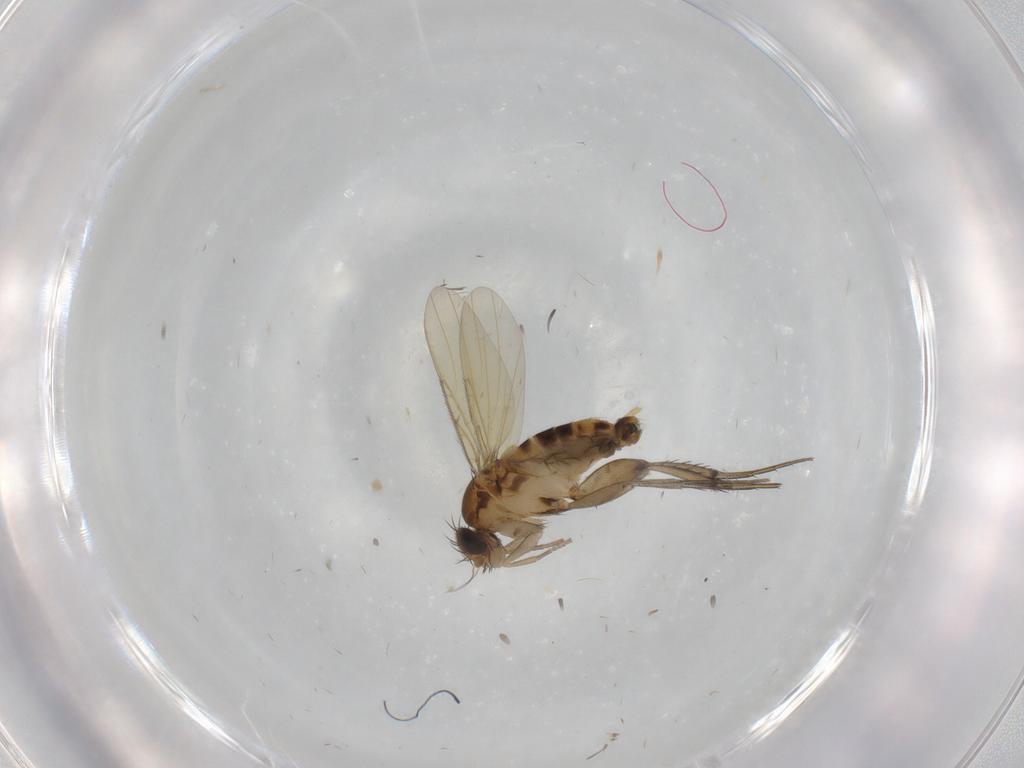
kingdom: Animalia
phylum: Arthropoda
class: Insecta
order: Diptera
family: Phoridae
